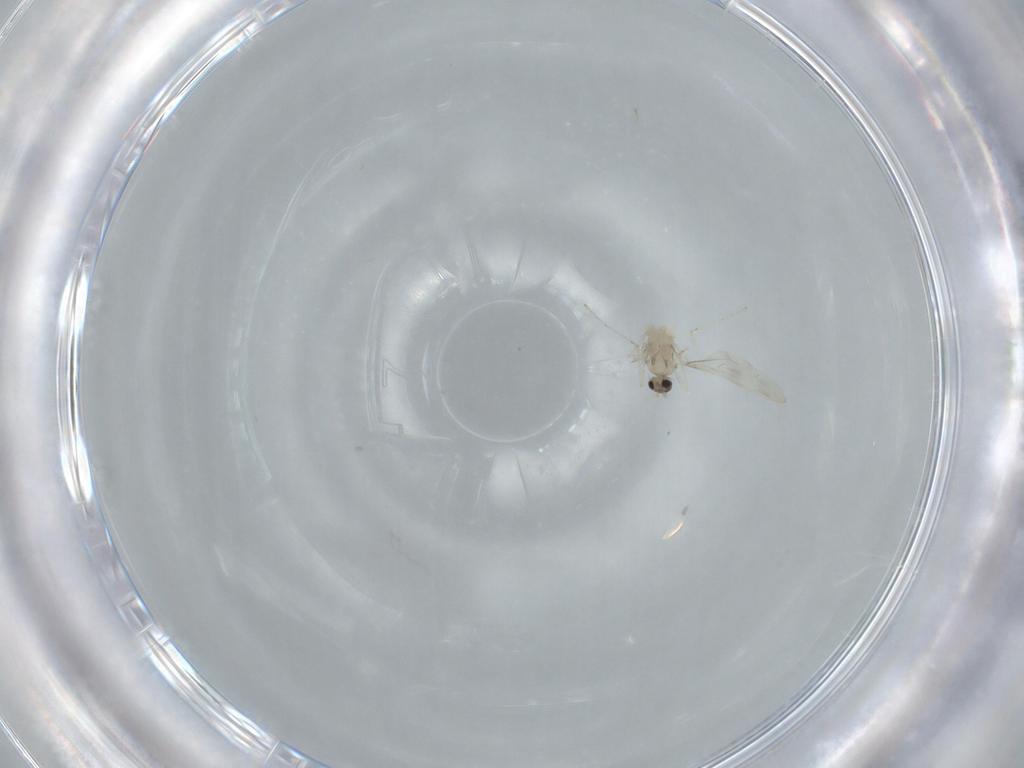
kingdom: Animalia
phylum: Arthropoda
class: Insecta
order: Diptera
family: Cecidomyiidae
